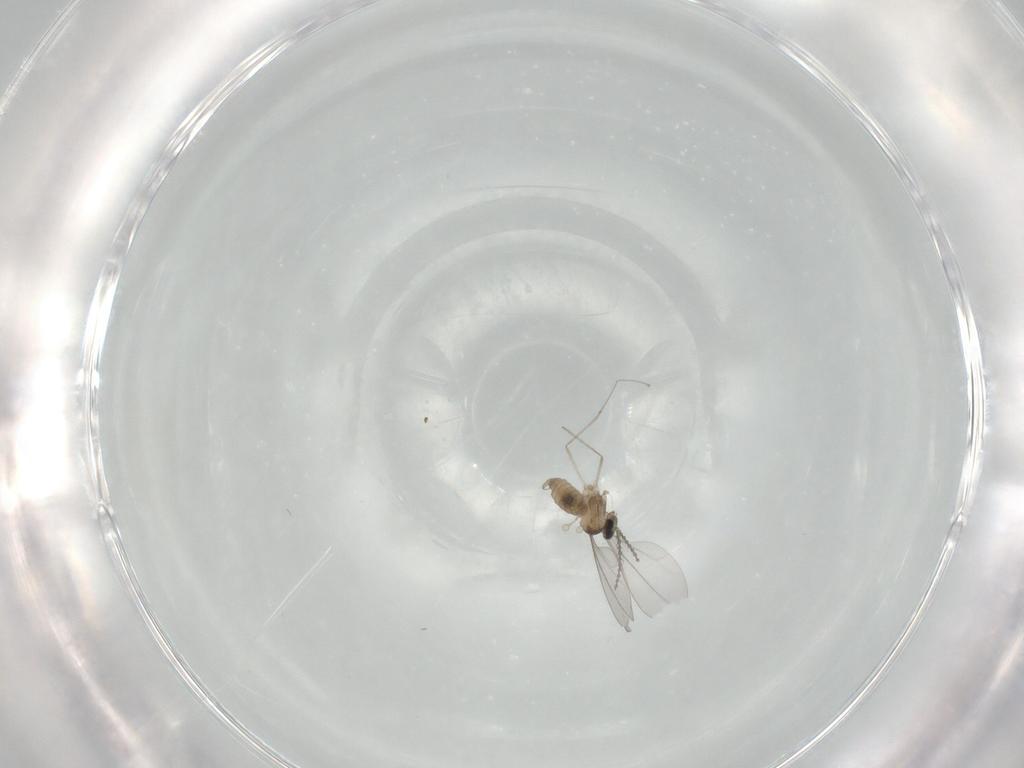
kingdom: Animalia
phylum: Arthropoda
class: Insecta
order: Diptera
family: Cecidomyiidae
